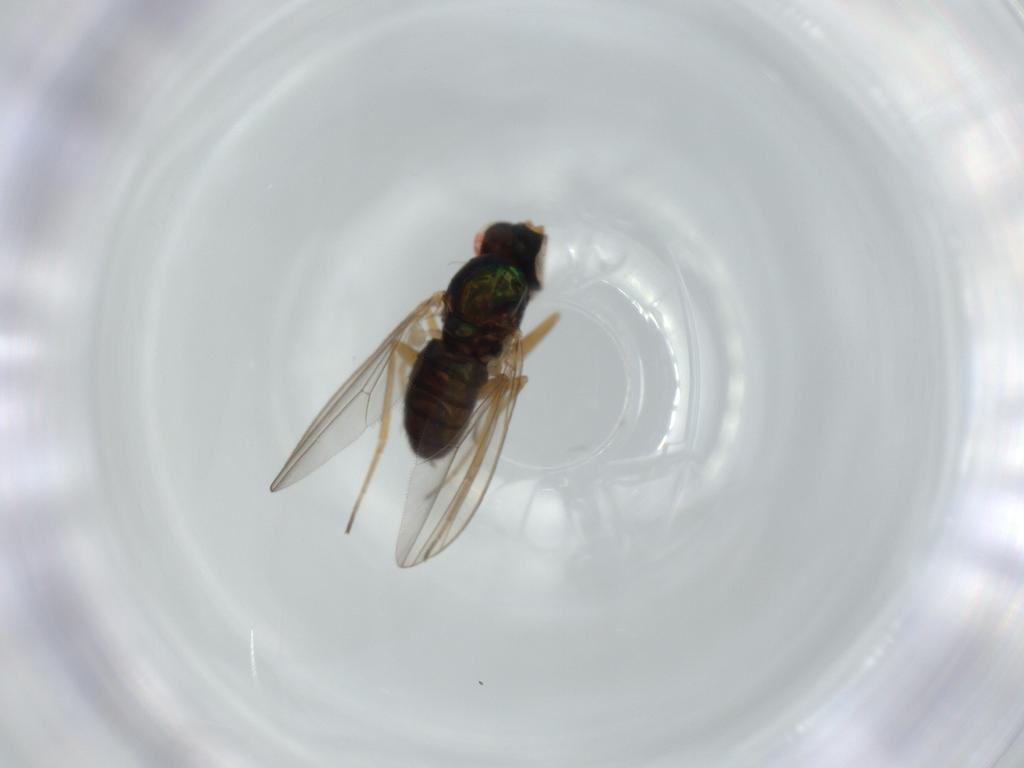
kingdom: Animalia
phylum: Arthropoda
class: Insecta
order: Diptera
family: Dolichopodidae
